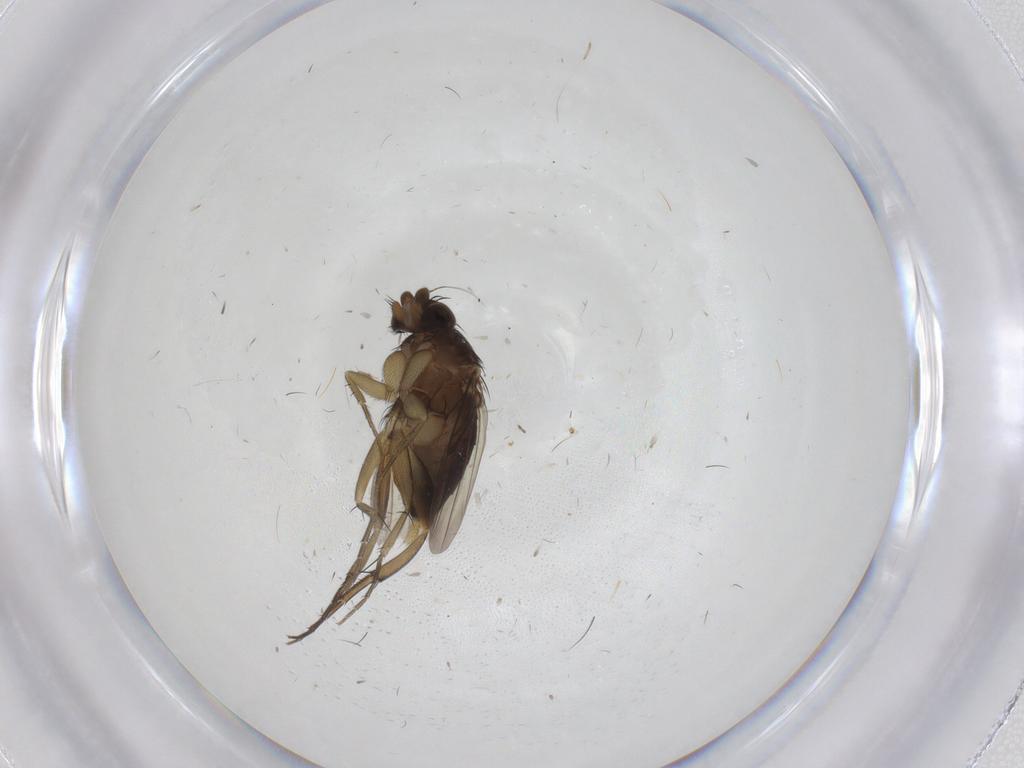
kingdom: Animalia
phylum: Arthropoda
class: Insecta
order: Diptera
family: Phoridae
